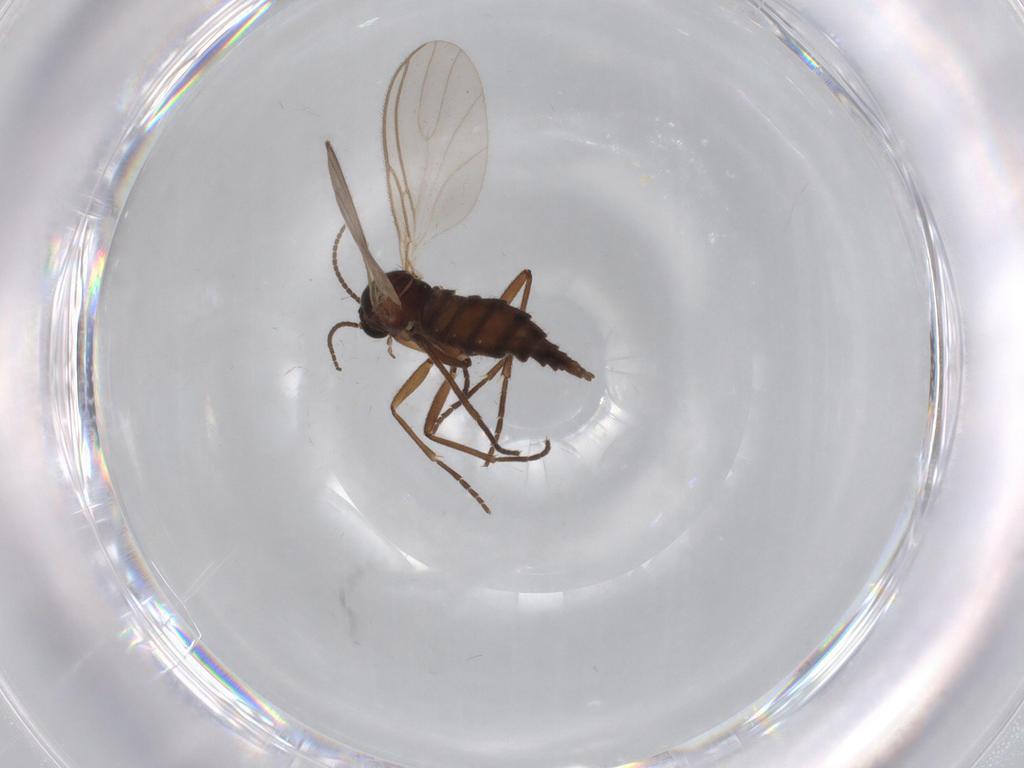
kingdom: Animalia
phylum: Arthropoda
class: Insecta
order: Diptera
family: Sciaridae
